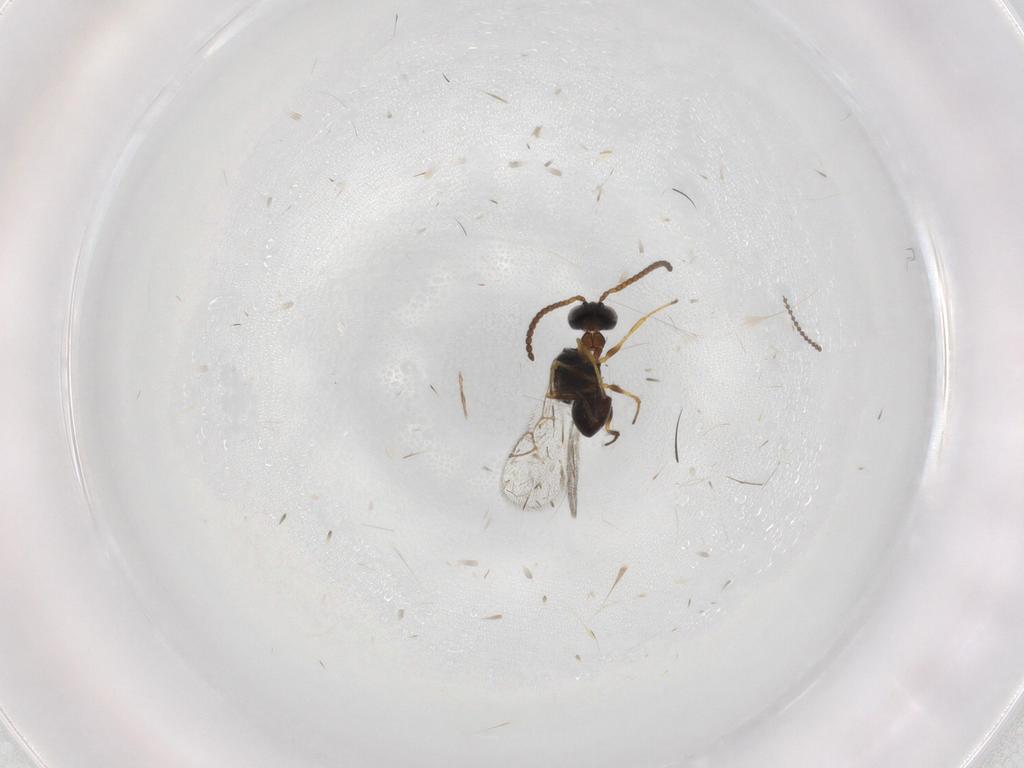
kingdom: Animalia
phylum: Arthropoda
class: Insecta
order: Hymenoptera
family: Figitidae
